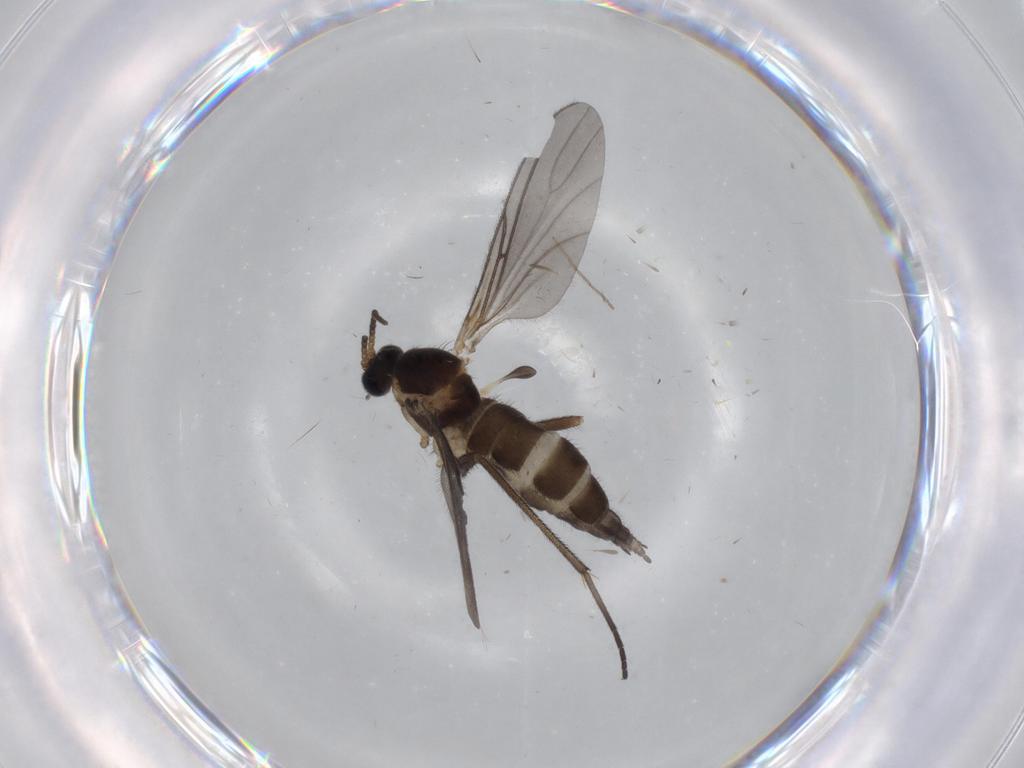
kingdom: Animalia
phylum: Arthropoda
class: Insecta
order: Diptera
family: Sciaridae
